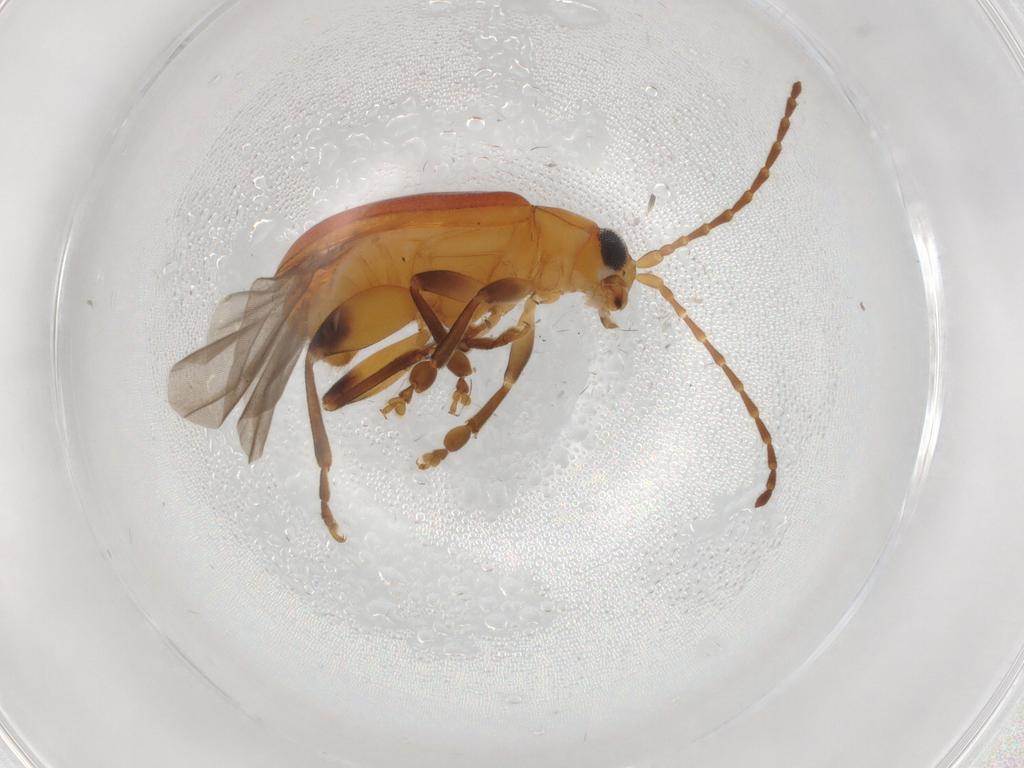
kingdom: Animalia
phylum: Arthropoda
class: Insecta
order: Coleoptera
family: Chrysomelidae
